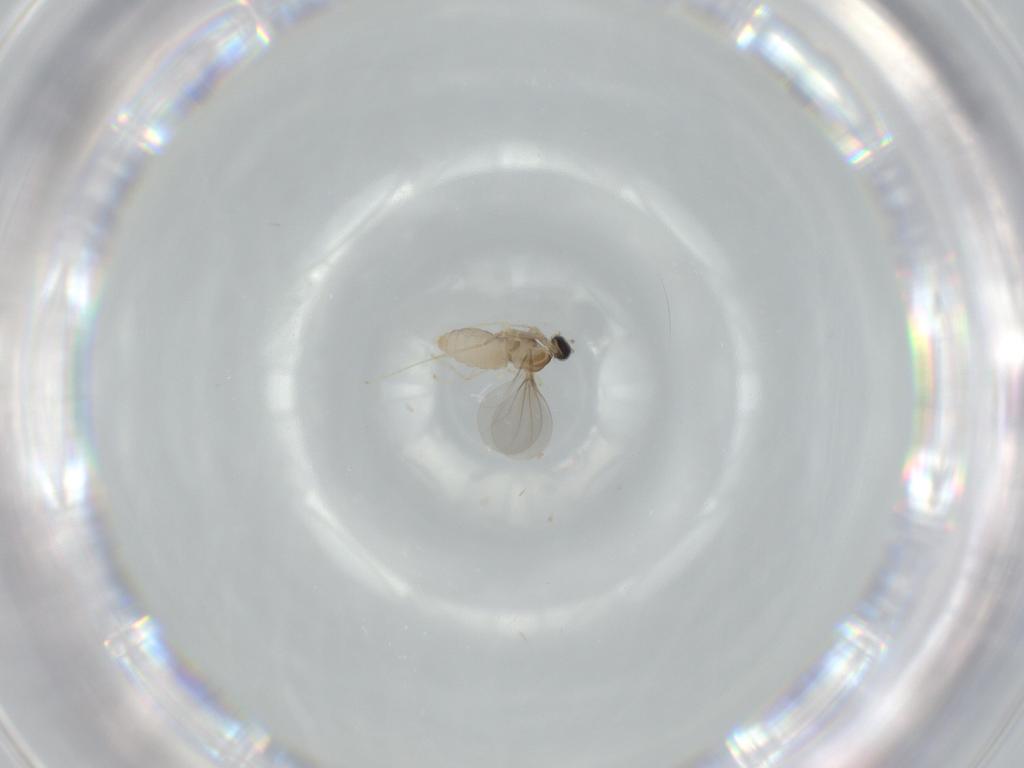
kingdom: Animalia
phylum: Arthropoda
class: Insecta
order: Diptera
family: Cecidomyiidae
